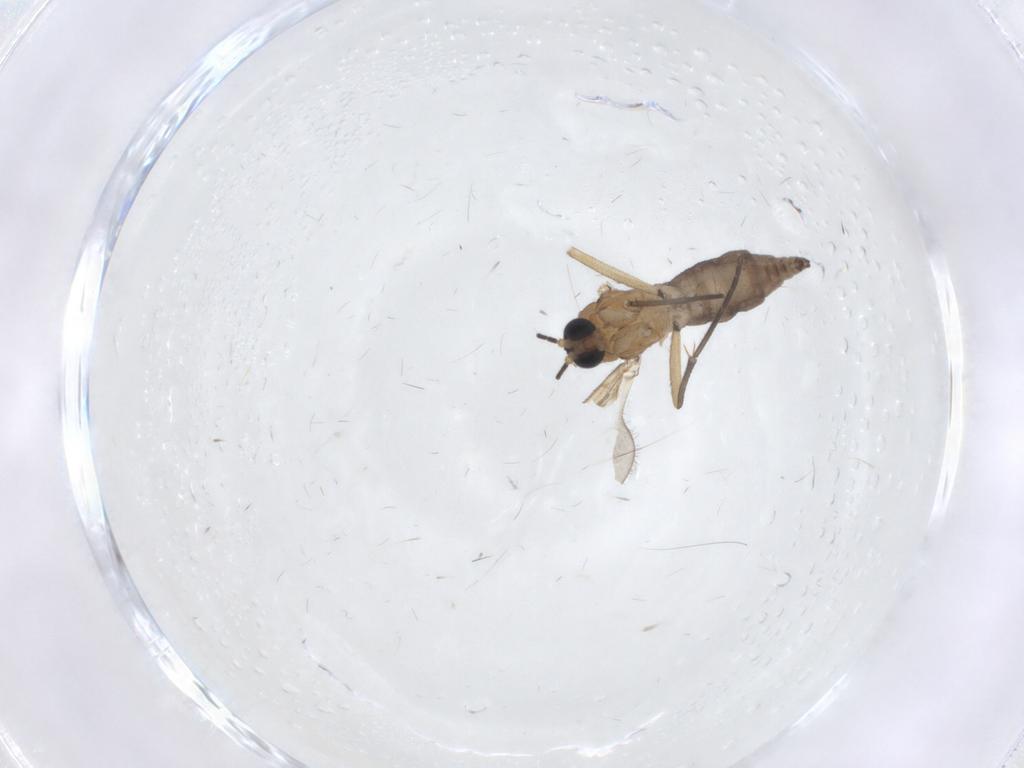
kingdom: Animalia
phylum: Arthropoda
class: Insecta
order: Diptera
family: Sciaridae
